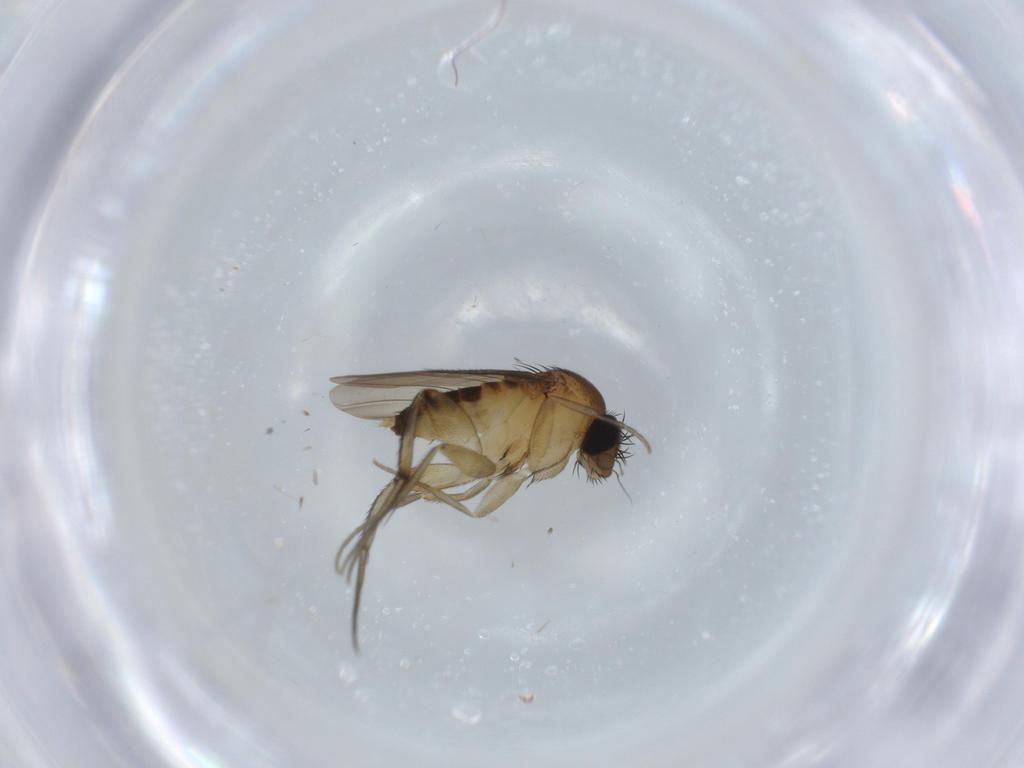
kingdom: Animalia
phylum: Arthropoda
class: Insecta
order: Diptera
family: Phoridae
